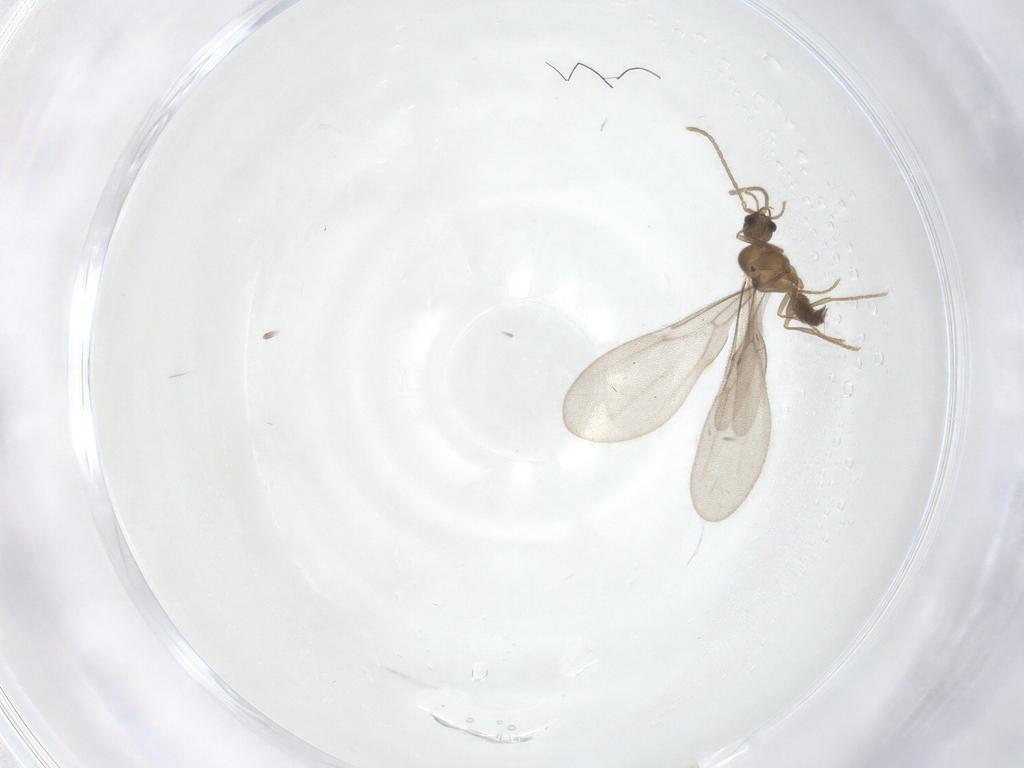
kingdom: Animalia
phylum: Arthropoda
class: Insecta
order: Hymenoptera
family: Formicidae
